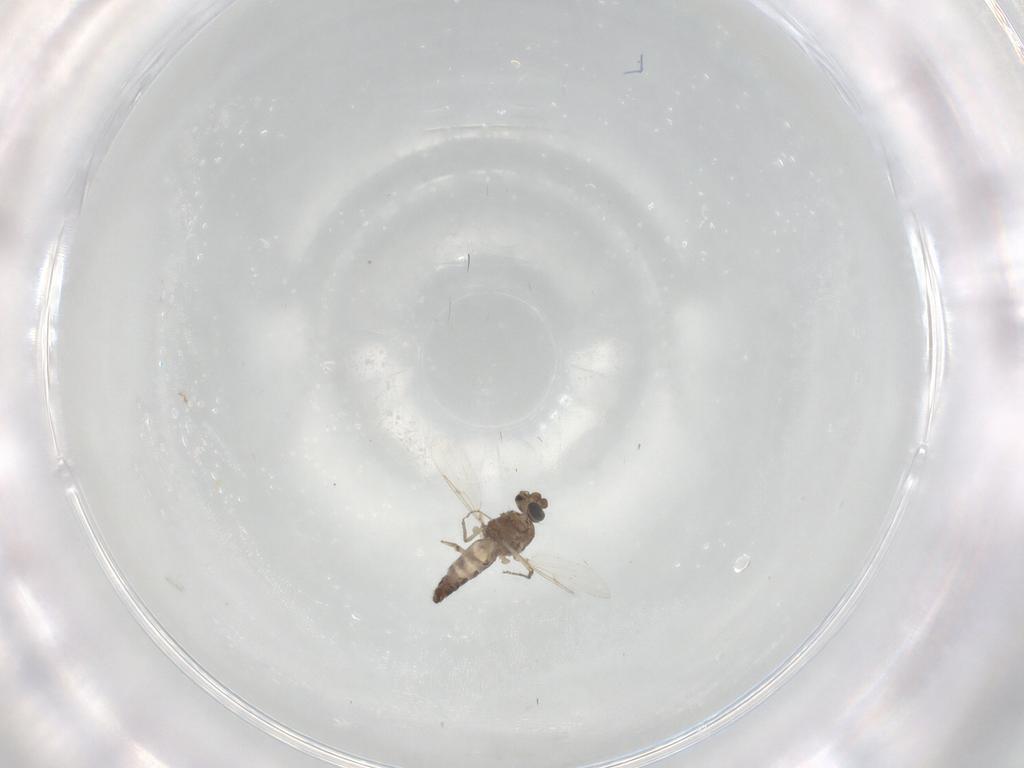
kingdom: Animalia
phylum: Arthropoda
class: Insecta
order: Diptera
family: Ceratopogonidae
